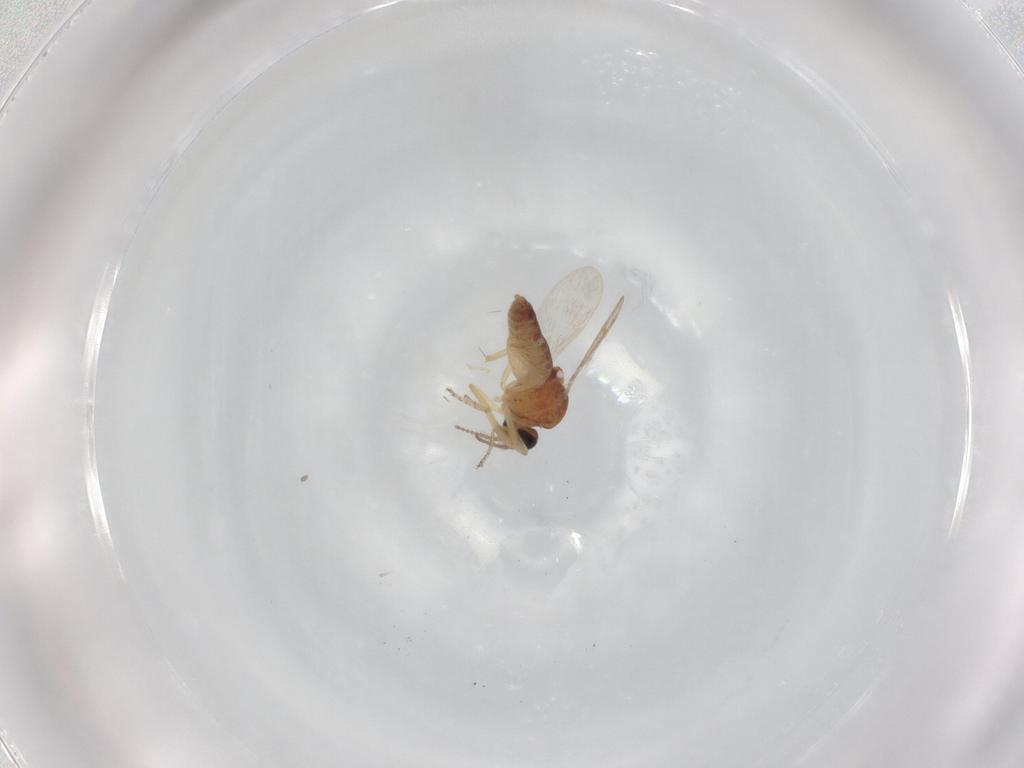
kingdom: Animalia
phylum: Arthropoda
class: Insecta
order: Diptera
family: Ceratopogonidae
